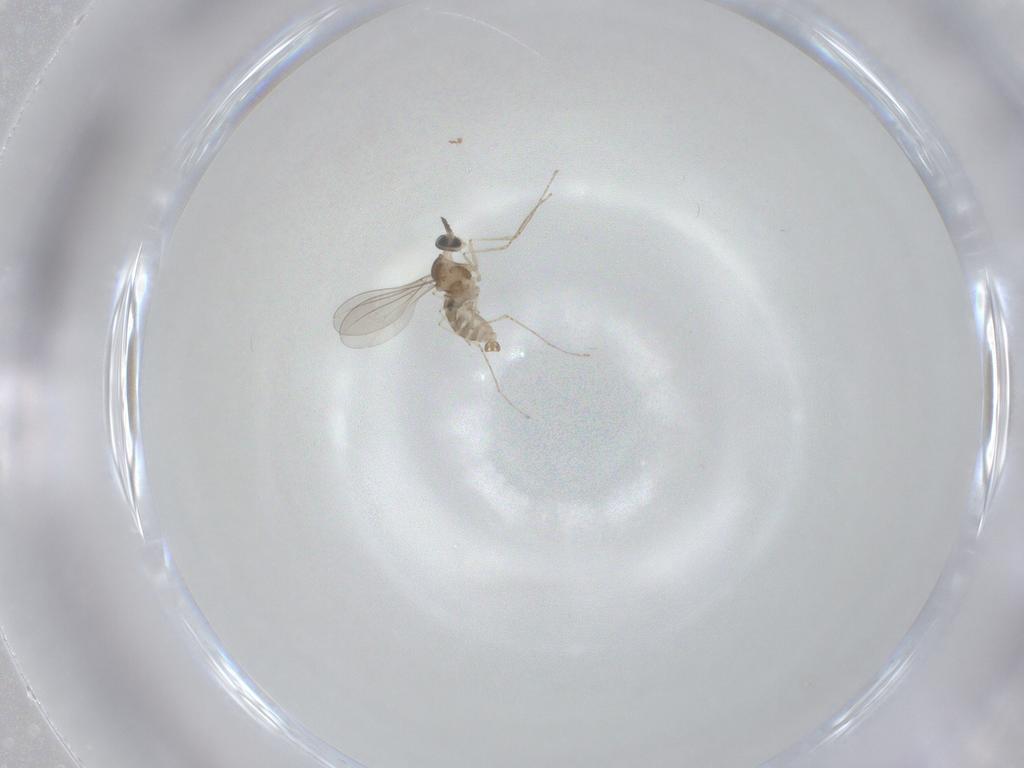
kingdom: Animalia
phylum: Arthropoda
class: Insecta
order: Diptera
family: Cecidomyiidae
